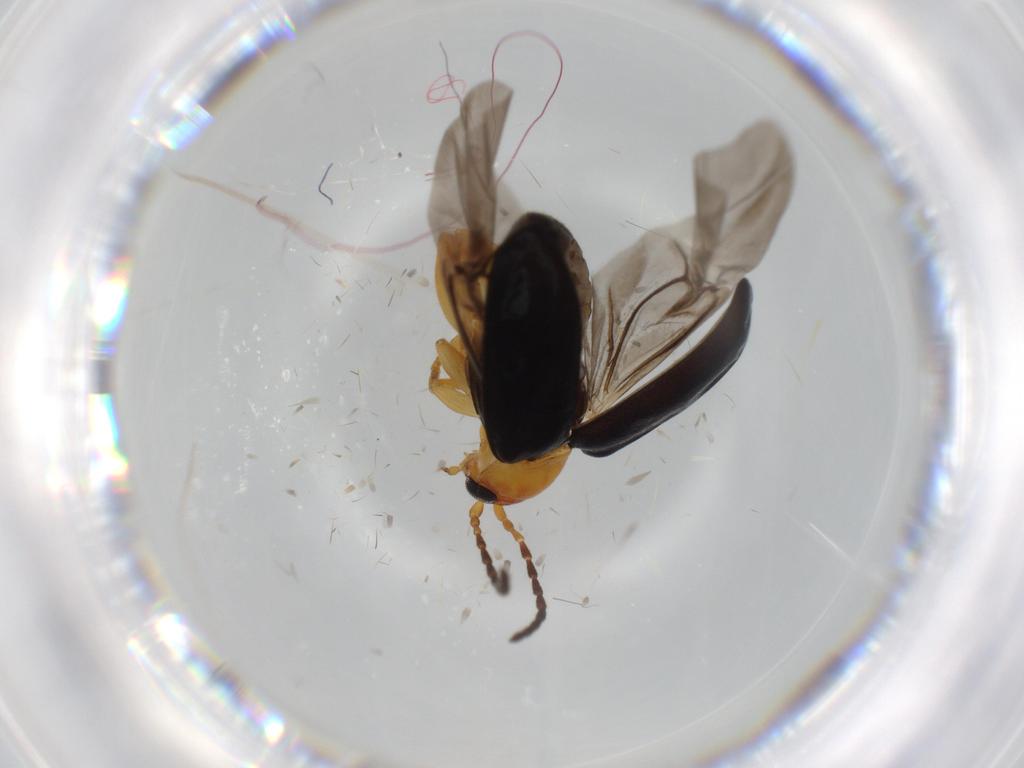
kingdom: Animalia
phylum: Arthropoda
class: Insecta
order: Coleoptera
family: Chrysomelidae
